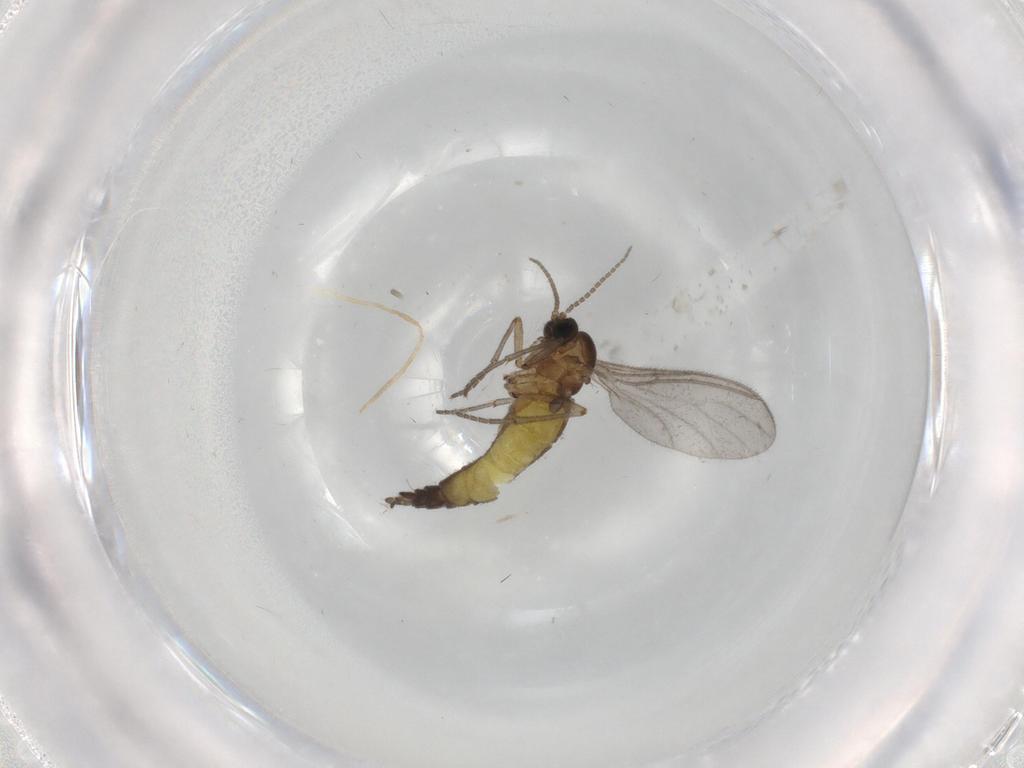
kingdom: Animalia
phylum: Arthropoda
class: Insecta
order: Diptera
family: Sciaridae
